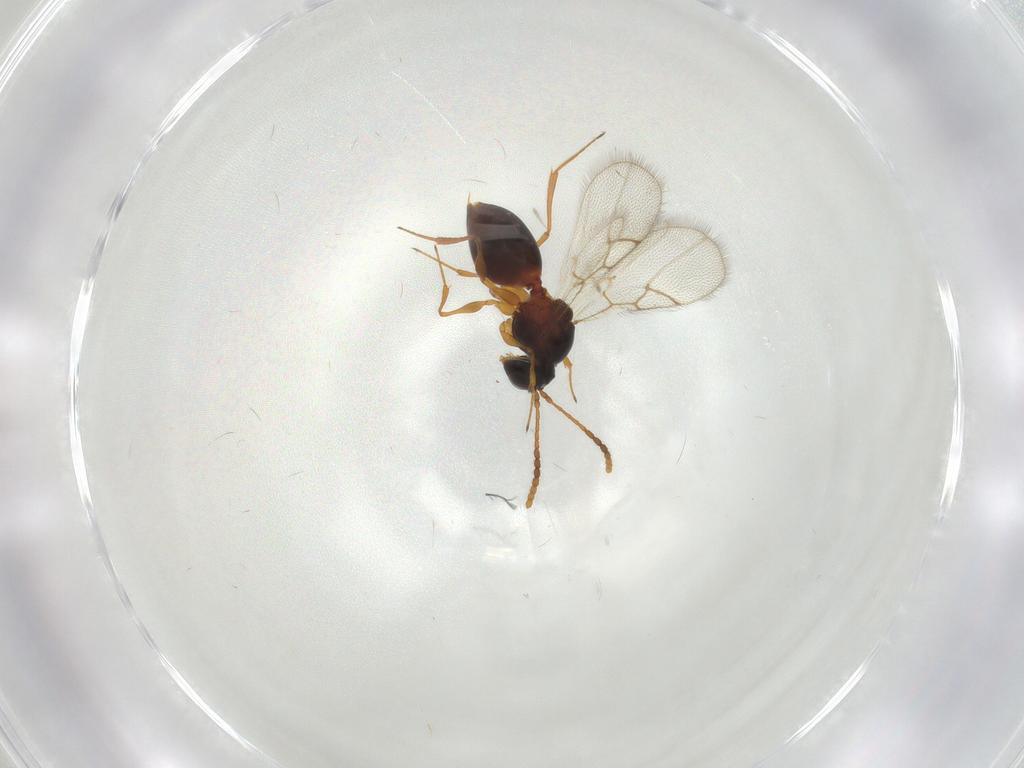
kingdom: Animalia
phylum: Arthropoda
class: Insecta
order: Hymenoptera
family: Figitidae
